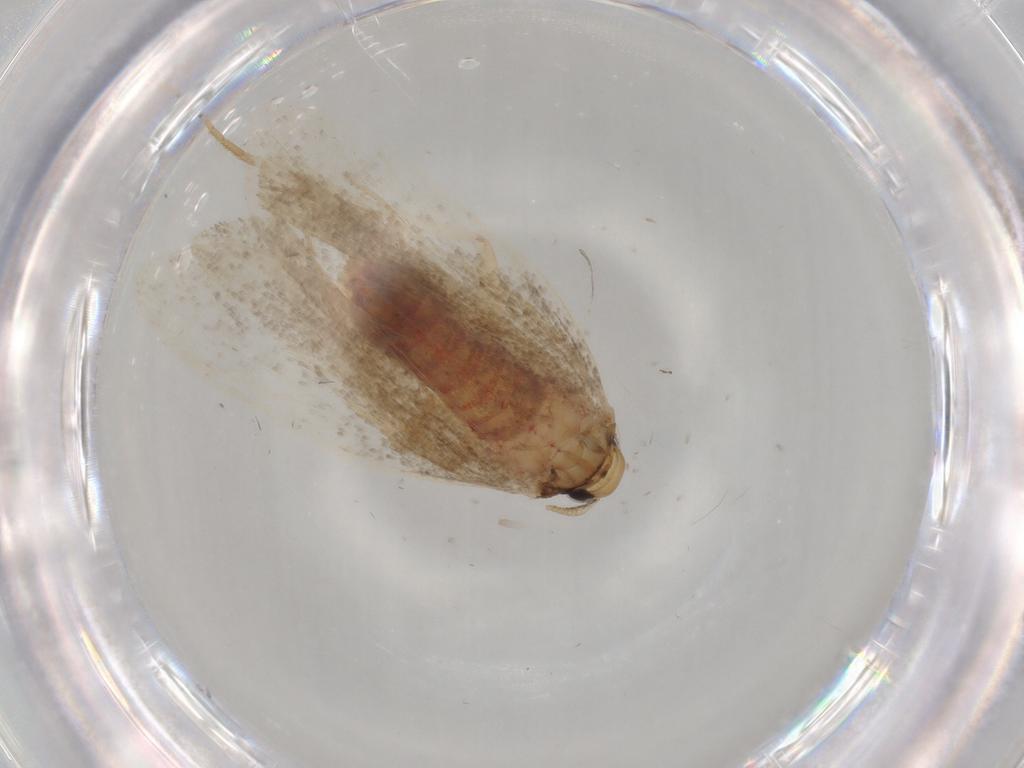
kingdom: Animalia
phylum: Arthropoda
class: Insecta
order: Lepidoptera
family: Lecithoceridae
